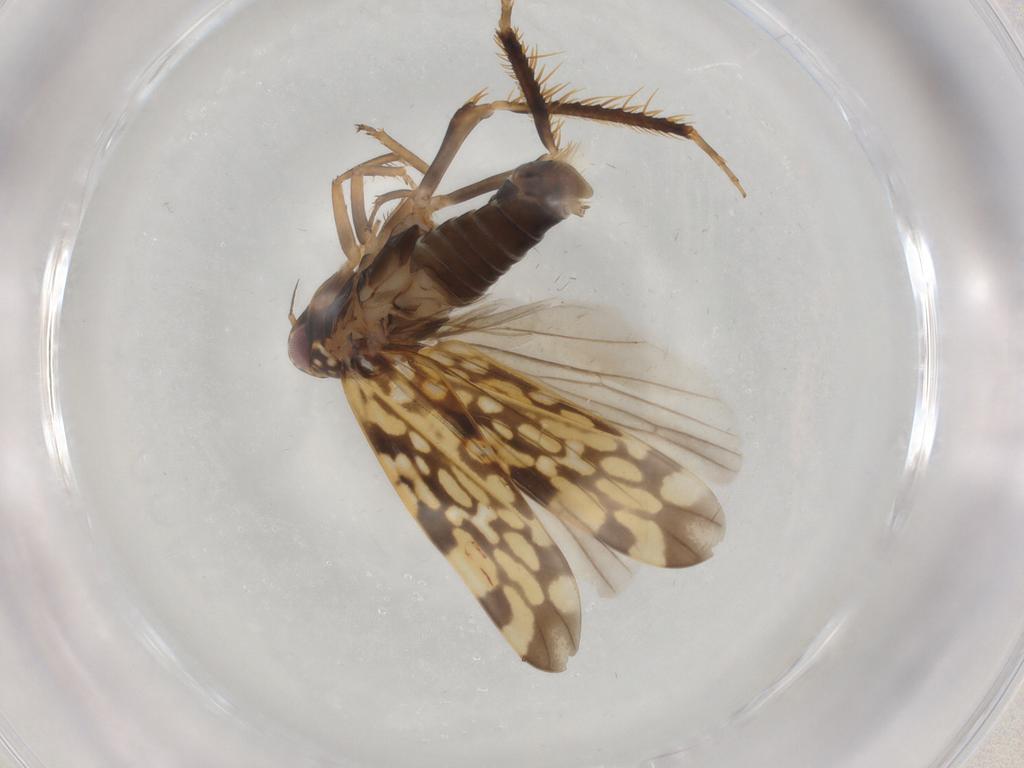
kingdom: Animalia
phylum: Arthropoda
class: Insecta
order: Hemiptera
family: Cicadellidae
